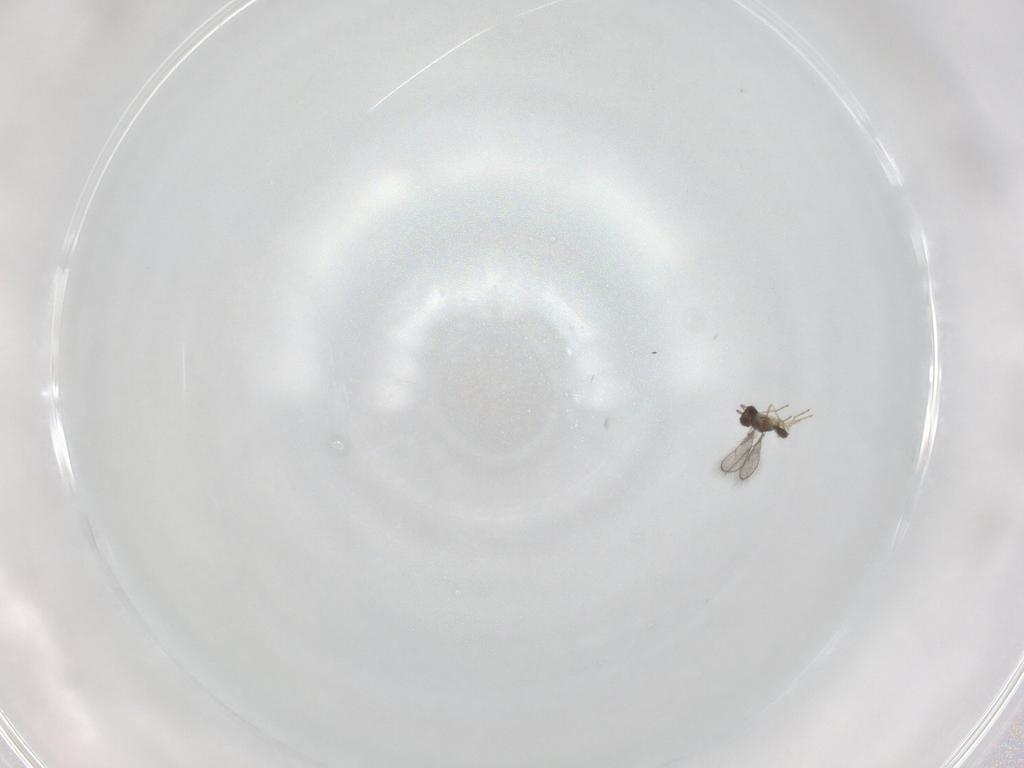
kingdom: Animalia
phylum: Arthropoda
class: Insecta
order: Hymenoptera
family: Eulophidae
